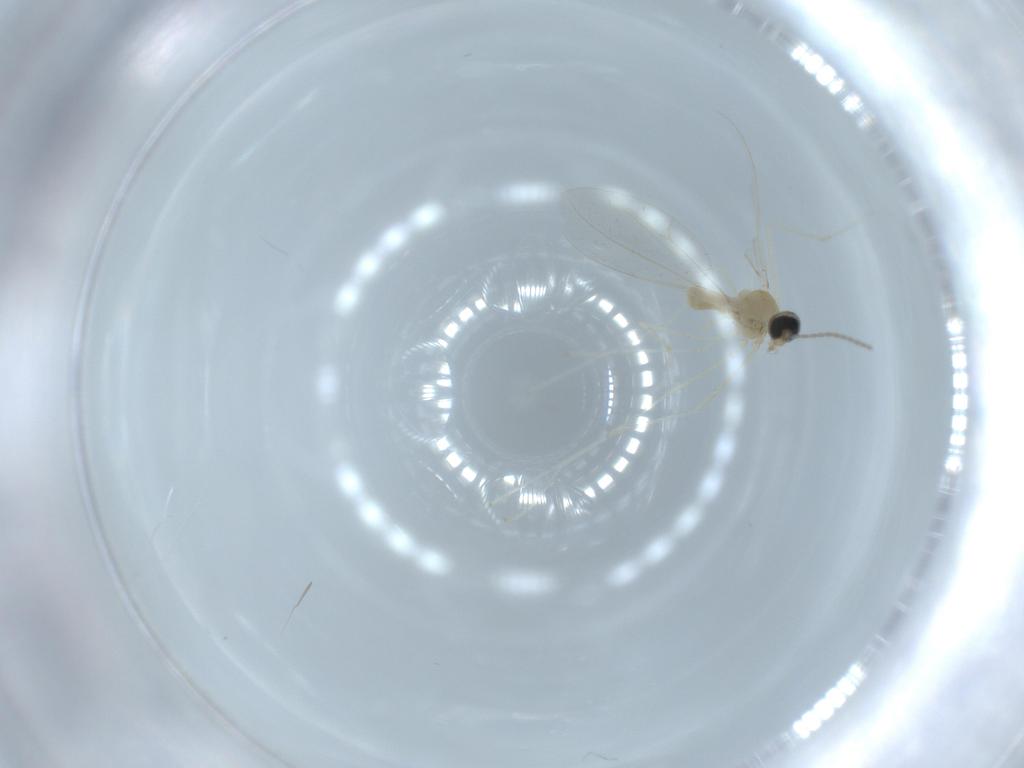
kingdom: Animalia
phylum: Arthropoda
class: Insecta
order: Diptera
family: Cecidomyiidae
